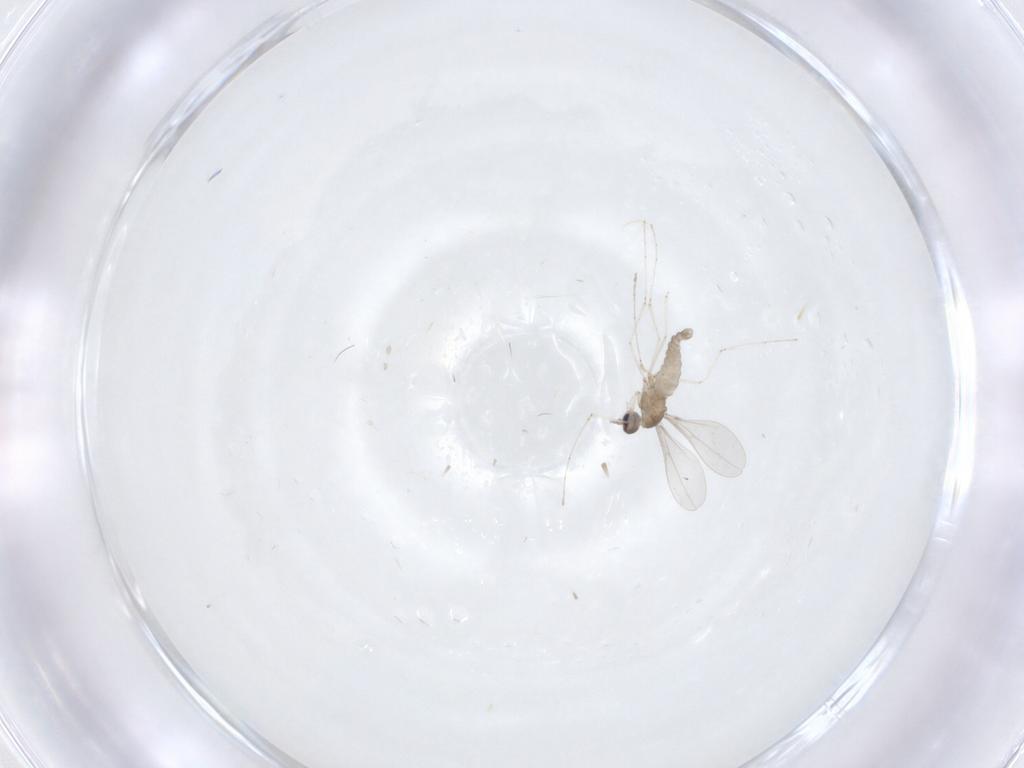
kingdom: Animalia
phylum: Arthropoda
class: Insecta
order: Diptera
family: Cecidomyiidae
